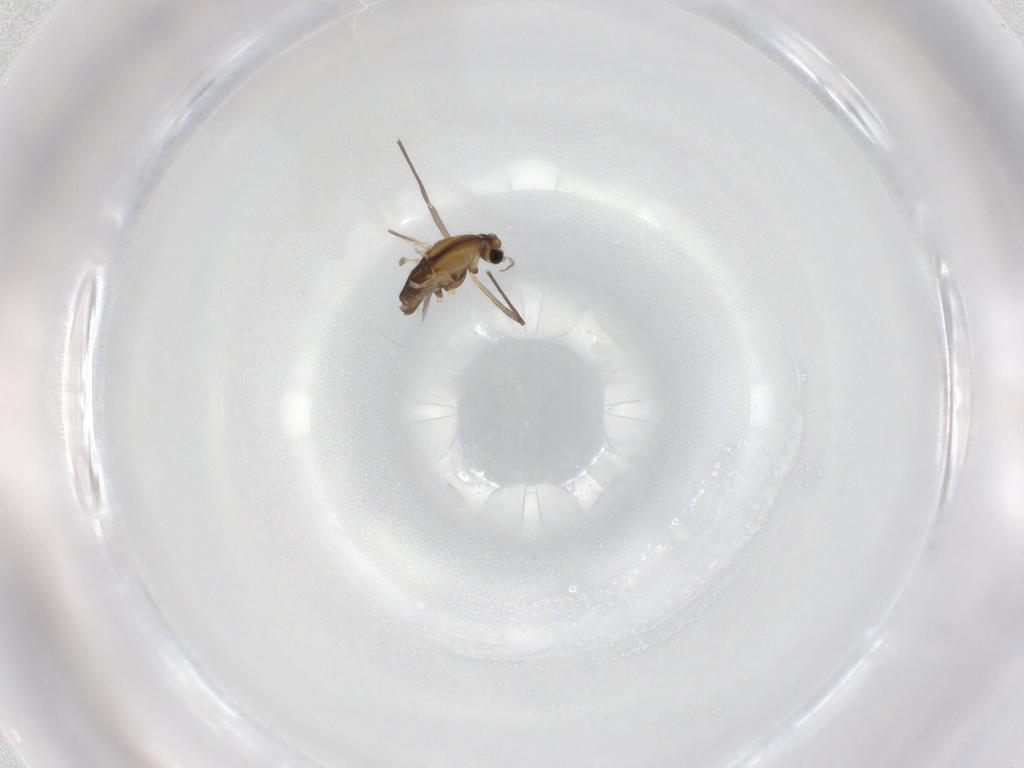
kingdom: Animalia
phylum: Arthropoda
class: Insecta
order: Diptera
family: Chironomidae
